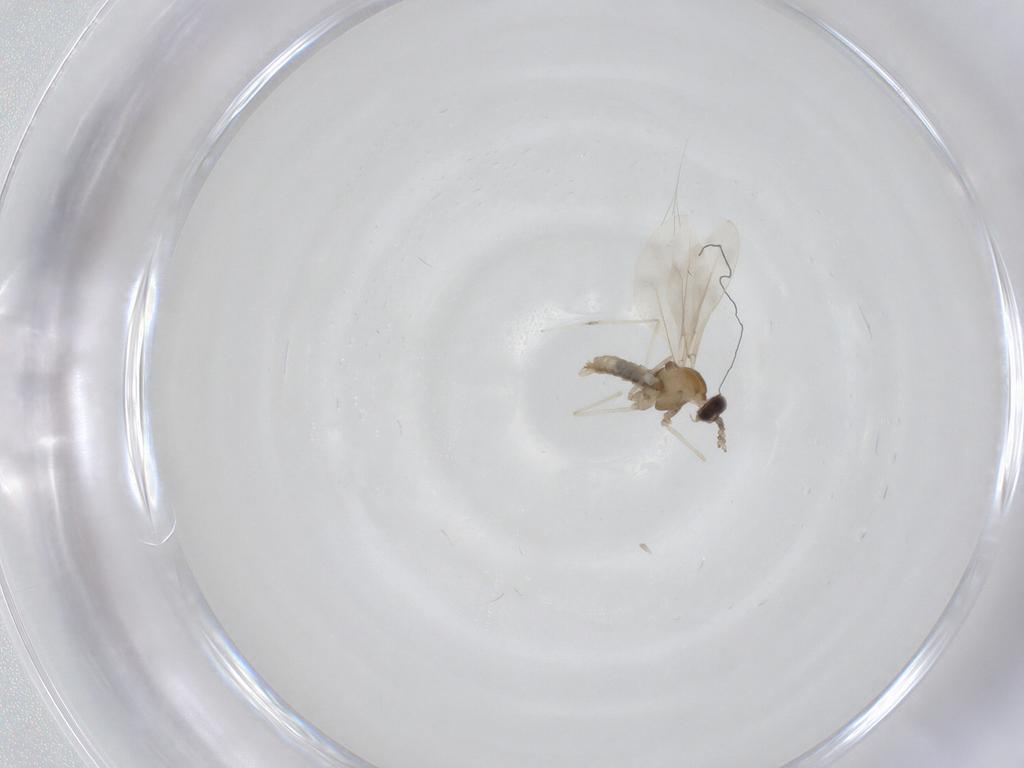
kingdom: Animalia
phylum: Arthropoda
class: Insecta
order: Diptera
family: Cecidomyiidae
